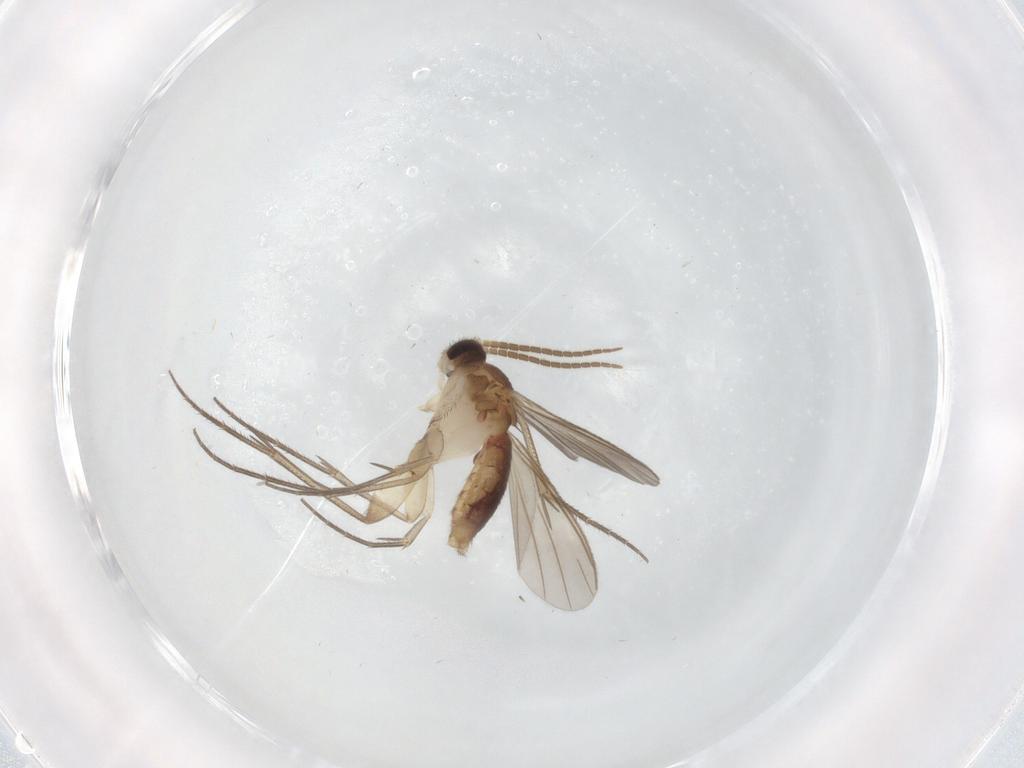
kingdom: Animalia
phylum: Arthropoda
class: Insecta
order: Diptera
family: Mycetophilidae
